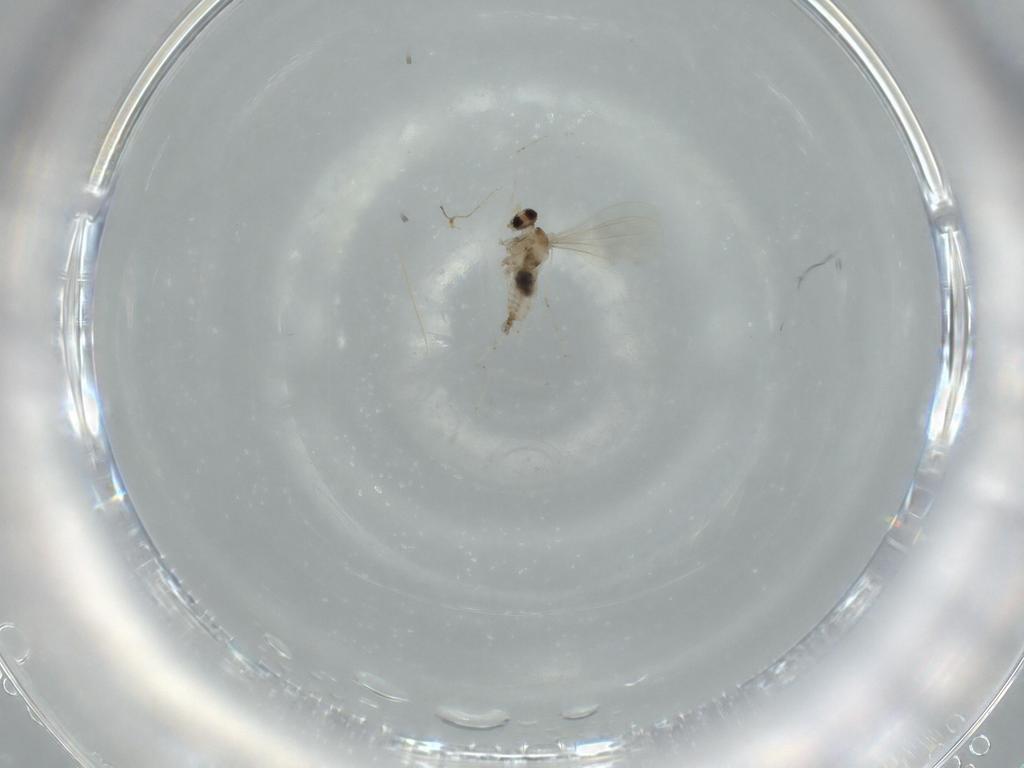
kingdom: Animalia
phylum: Arthropoda
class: Insecta
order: Diptera
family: Cecidomyiidae
